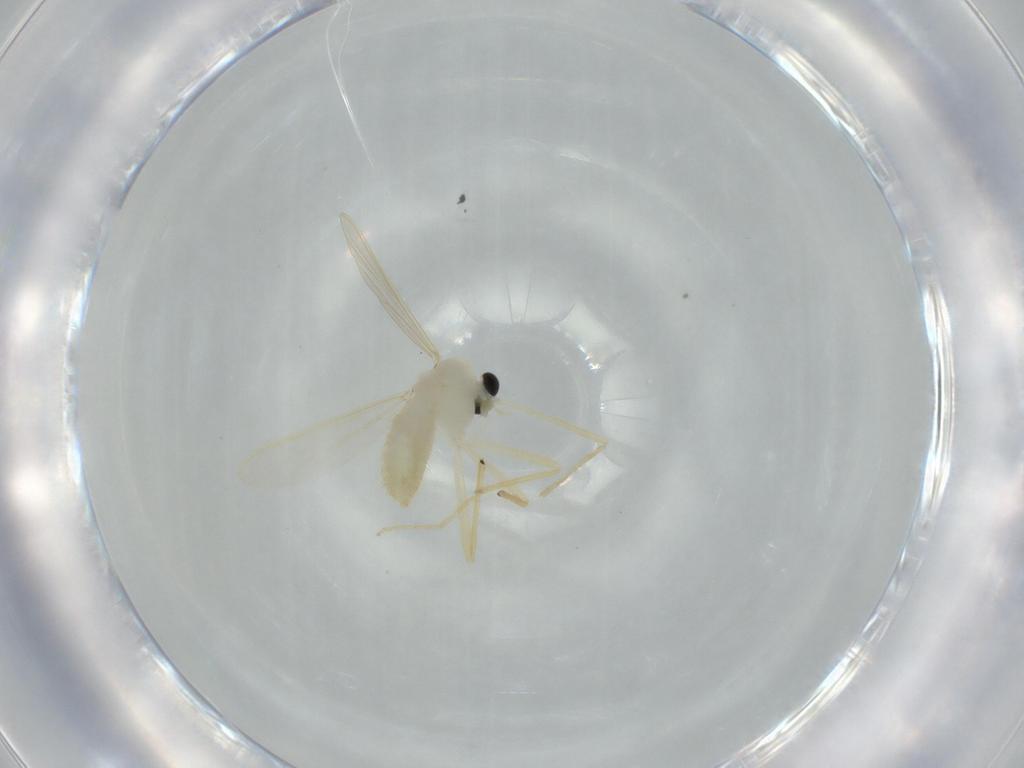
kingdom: Animalia
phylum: Arthropoda
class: Insecta
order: Diptera
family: Chironomidae
